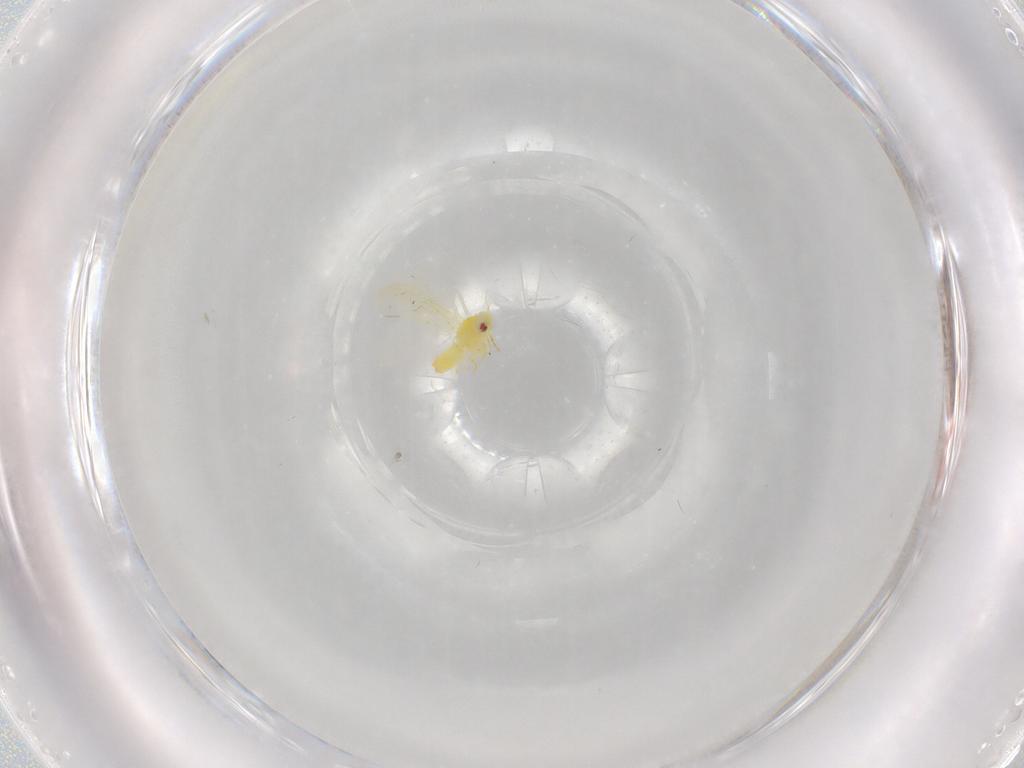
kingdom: Animalia
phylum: Arthropoda
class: Insecta
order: Hemiptera
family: Aleyrodidae
